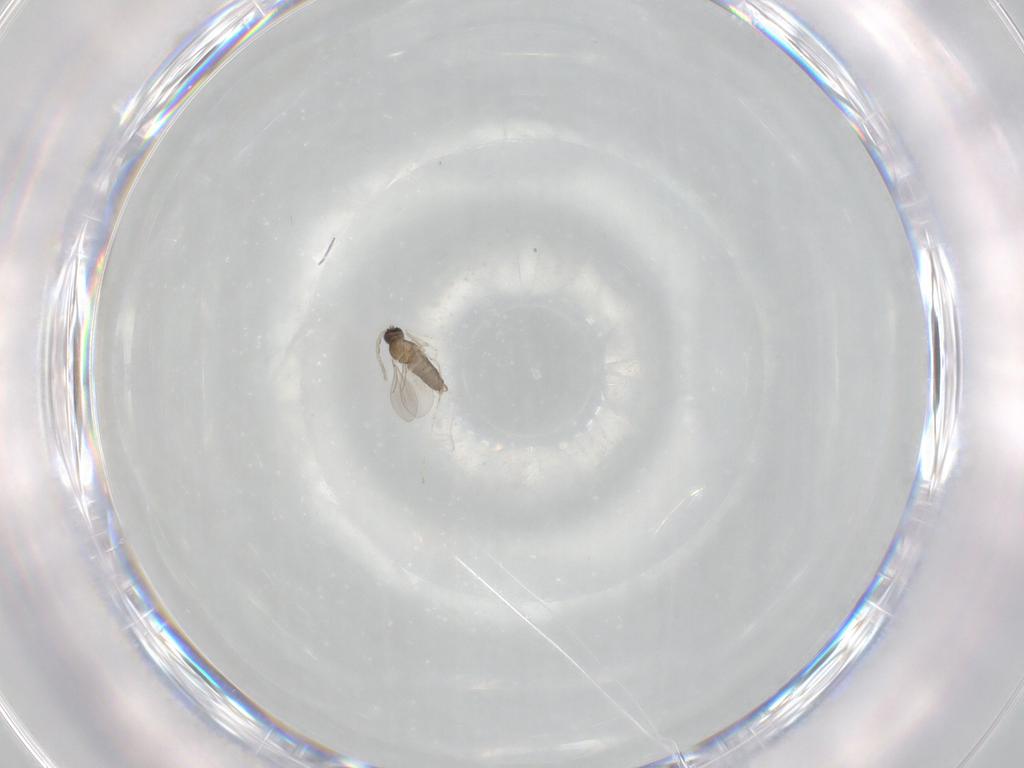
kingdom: Animalia
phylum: Arthropoda
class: Insecta
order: Diptera
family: Cecidomyiidae
